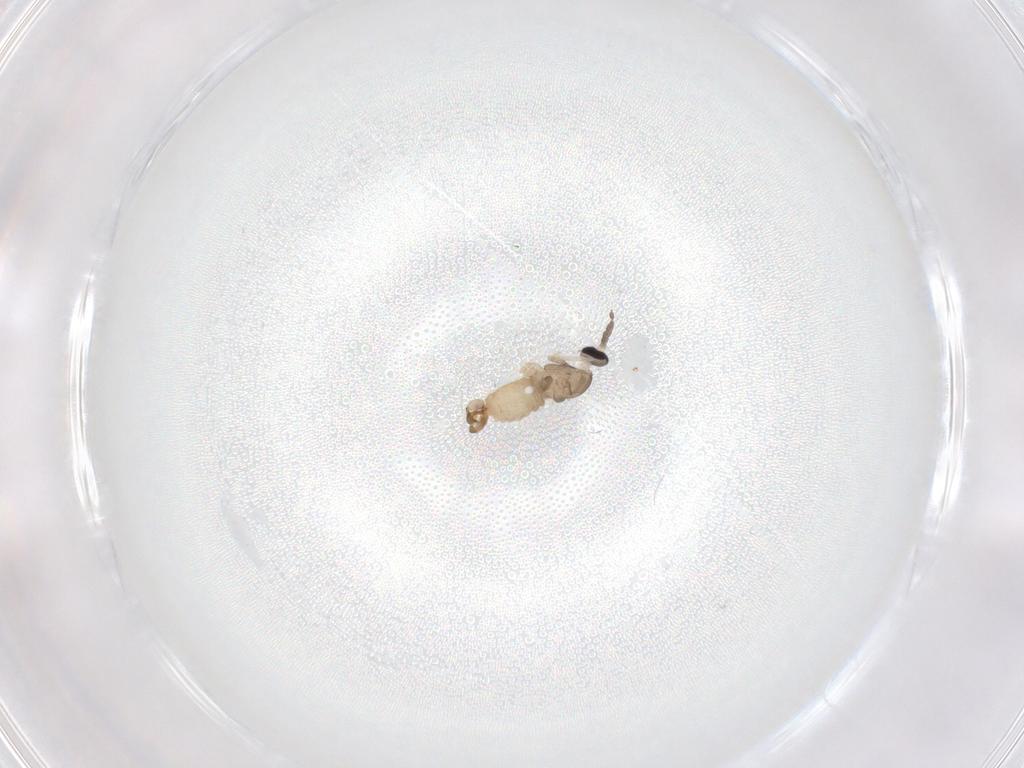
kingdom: Animalia
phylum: Arthropoda
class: Insecta
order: Diptera
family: Cecidomyiidae
